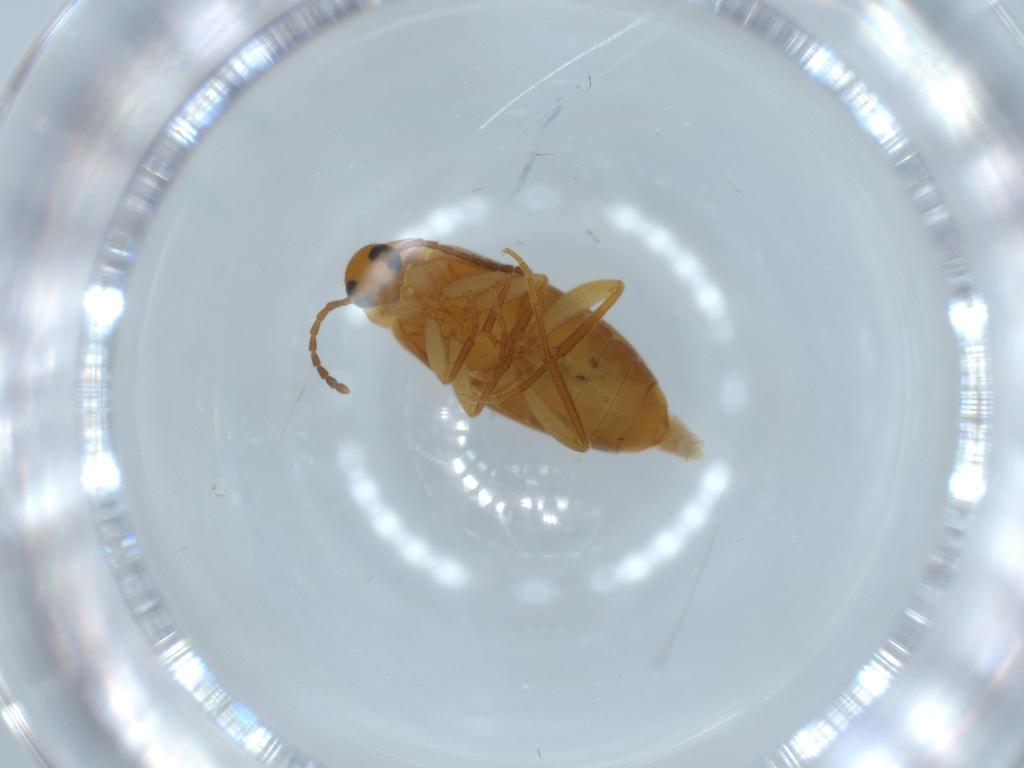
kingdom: Animalia
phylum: Arthropoda
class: Insecta
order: Coleoptera
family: Scraptiidae
